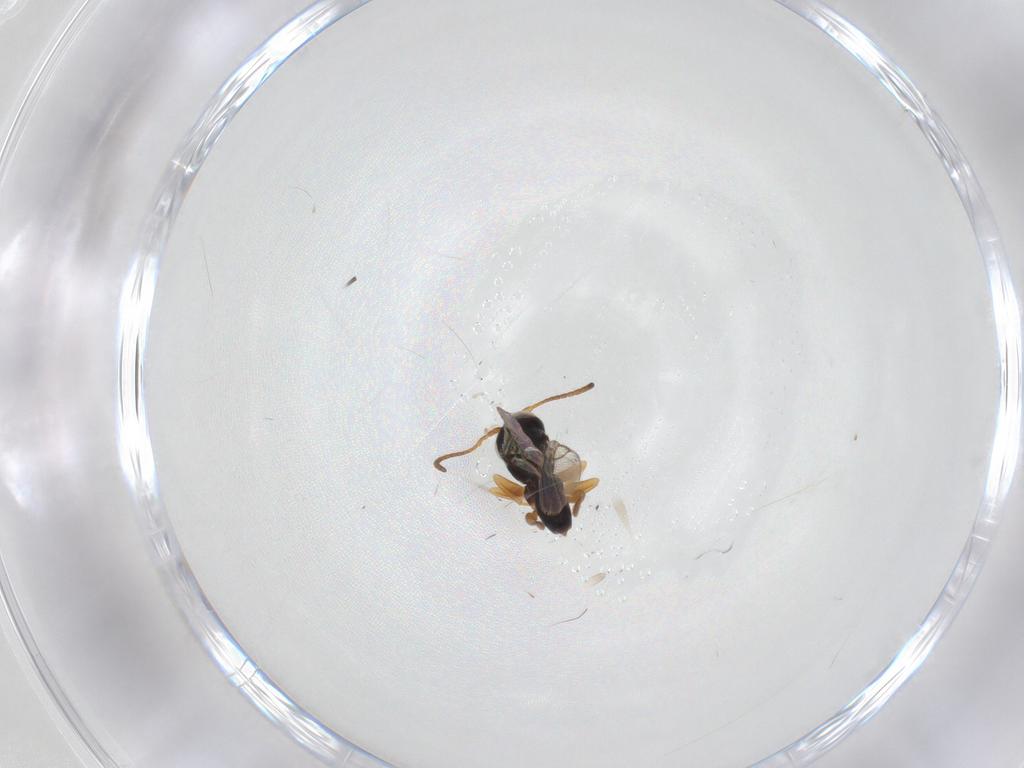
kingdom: Animalia
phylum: Arthropoda
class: Insecta
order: Hymenoptera
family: Cynipidae
